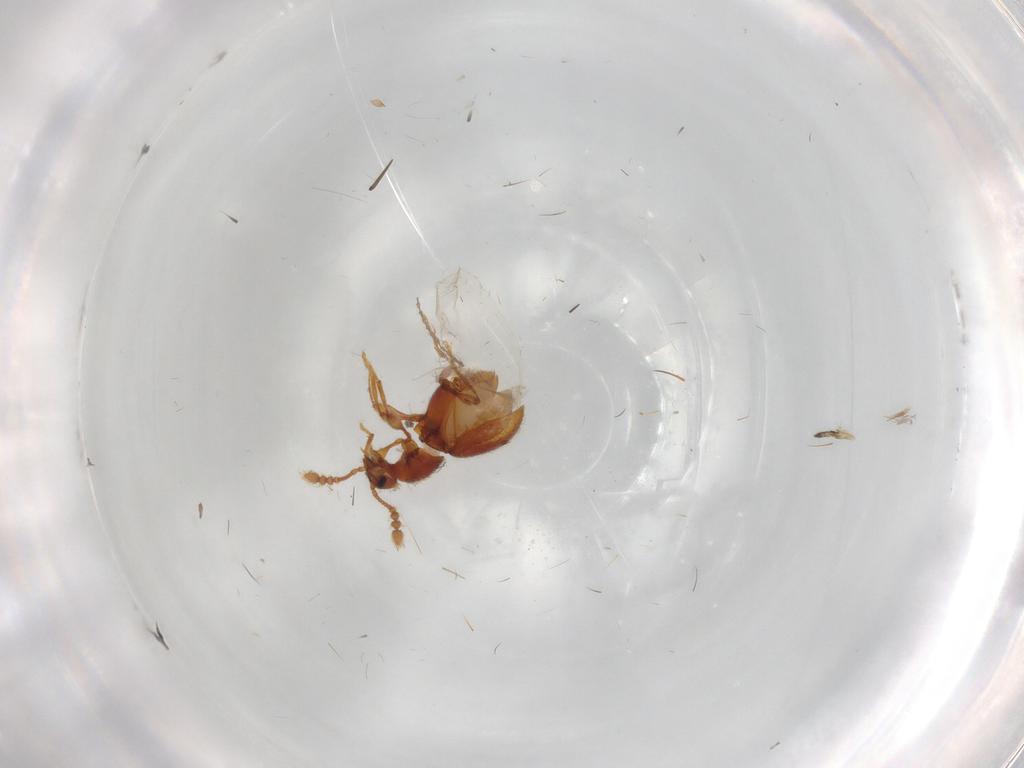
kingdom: Animalia
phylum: Arthropoda
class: Insecta
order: Coleoptera
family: Staphylinidae
